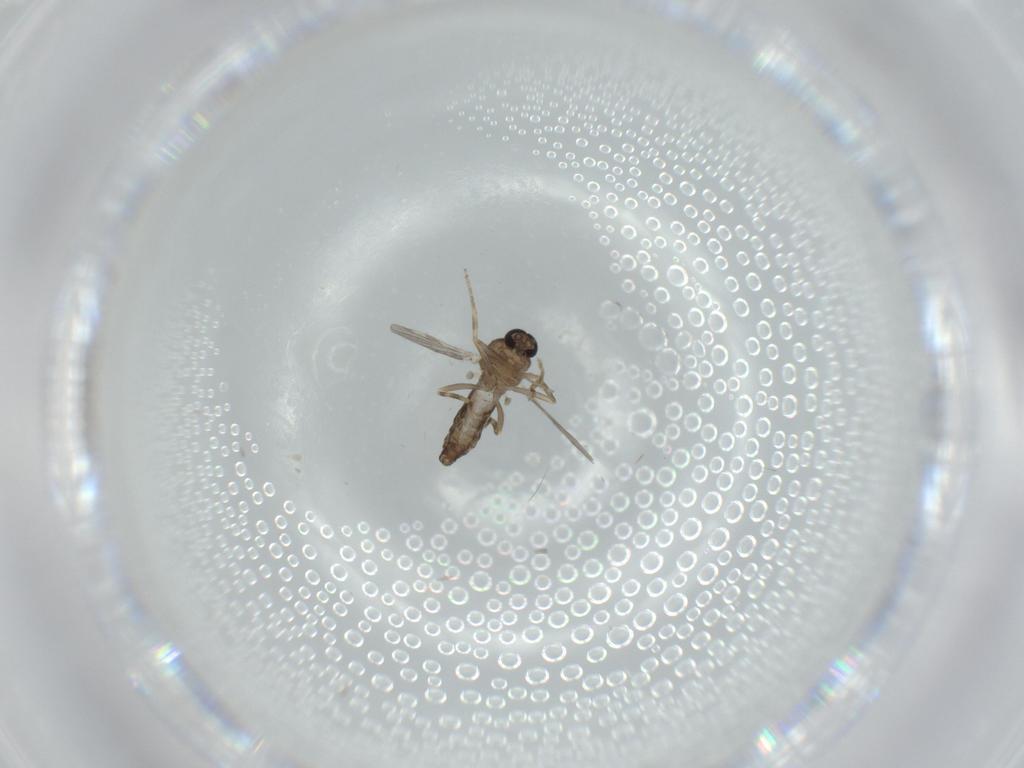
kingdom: Animalia
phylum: Arthropoda
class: Insecta
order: Diptera
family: Ceratopogonidae
